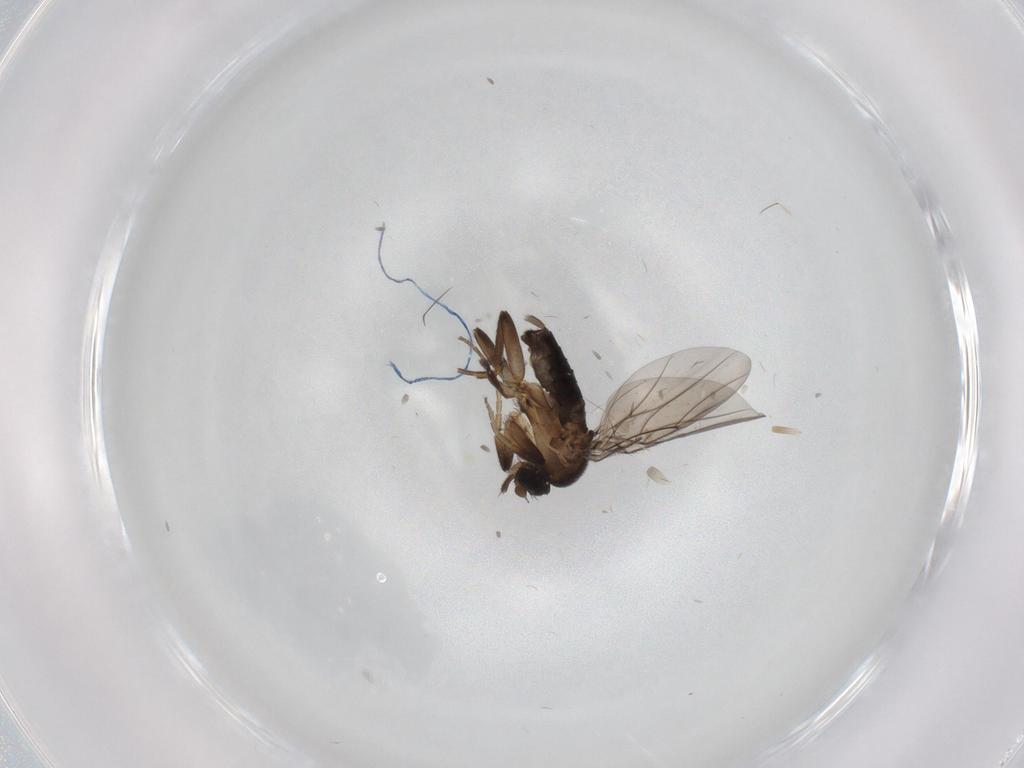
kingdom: Animalia
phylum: Arthropoda
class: Insecta
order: Diptera
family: Phoridae
